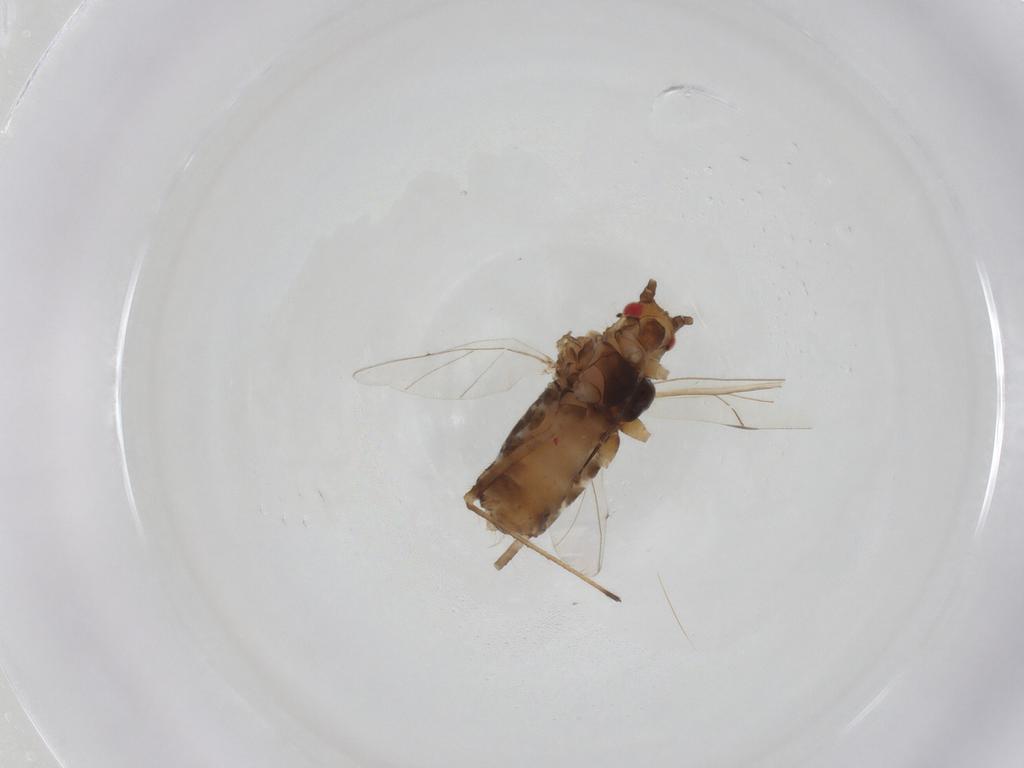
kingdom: Animalia
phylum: Arthropoda
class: Insecta
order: Hemiptera
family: Aphididae
